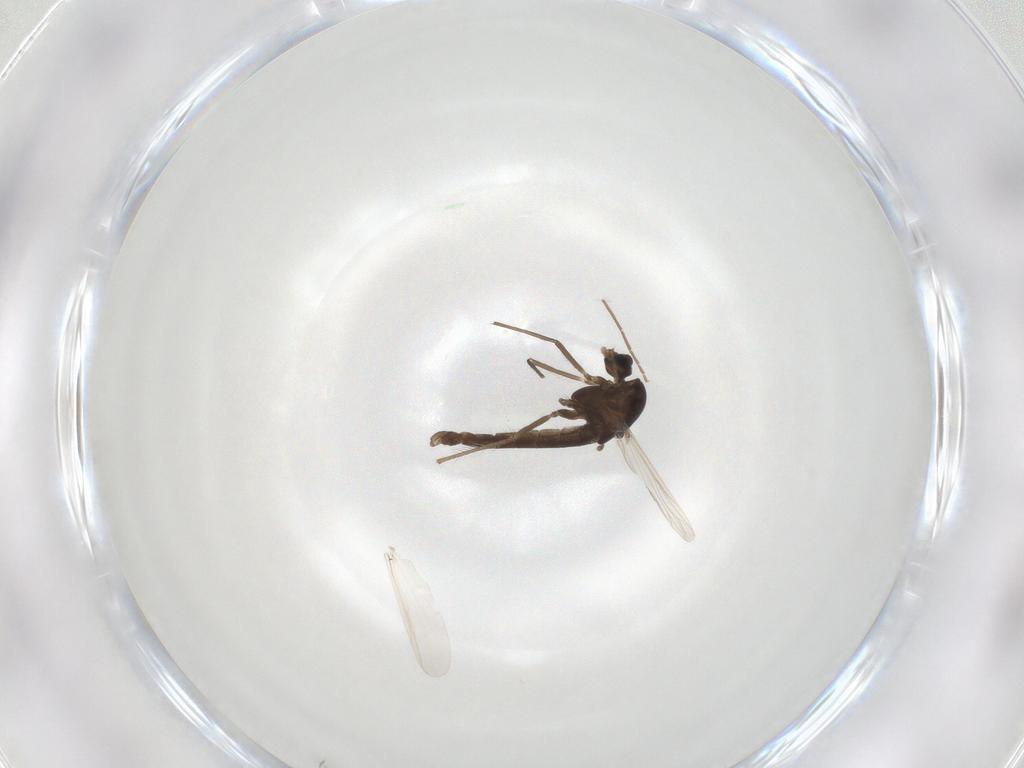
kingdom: Animalia
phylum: Arthropoda
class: Insecta
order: Diptera
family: Chironomidae
